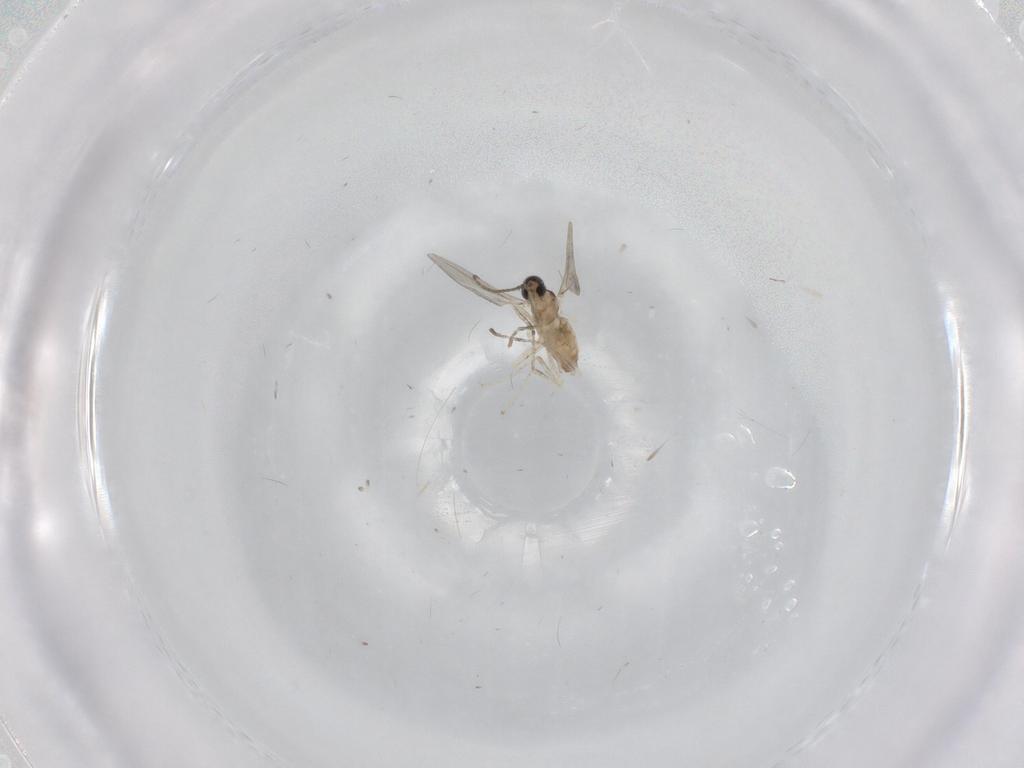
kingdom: Animalia
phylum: Arthropoda
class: Insecta
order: Diptera
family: Cecidomyiidae
